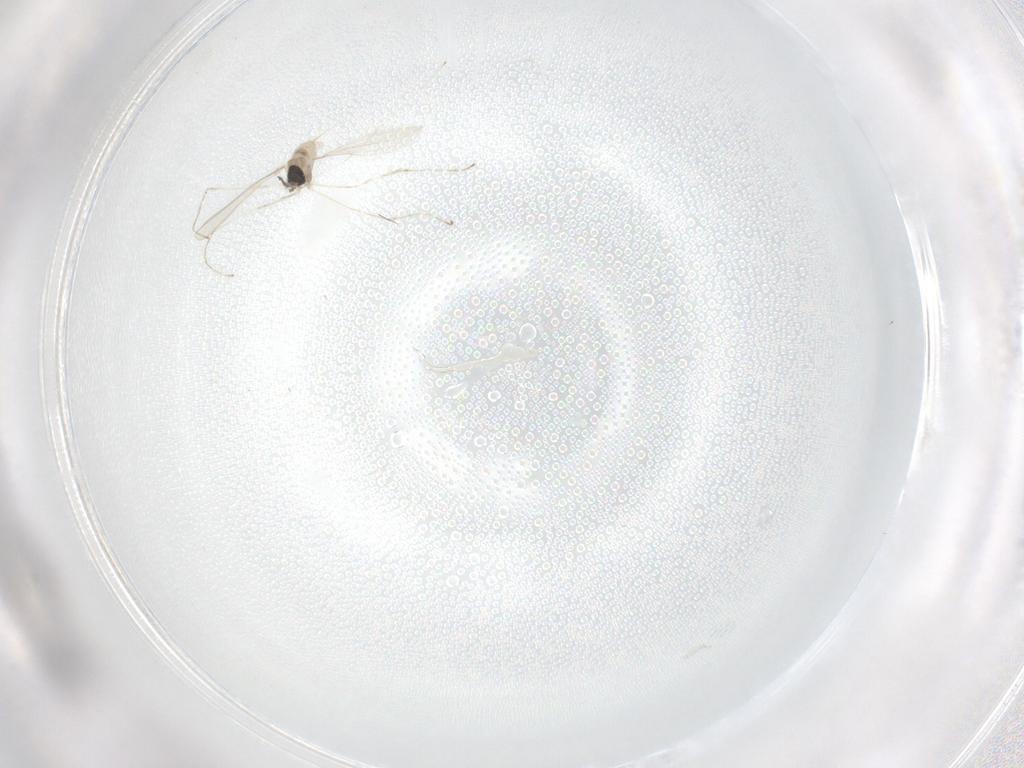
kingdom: Animalia
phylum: Arthropoda
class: Insecta
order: Diptera
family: Cecidomyiidae
